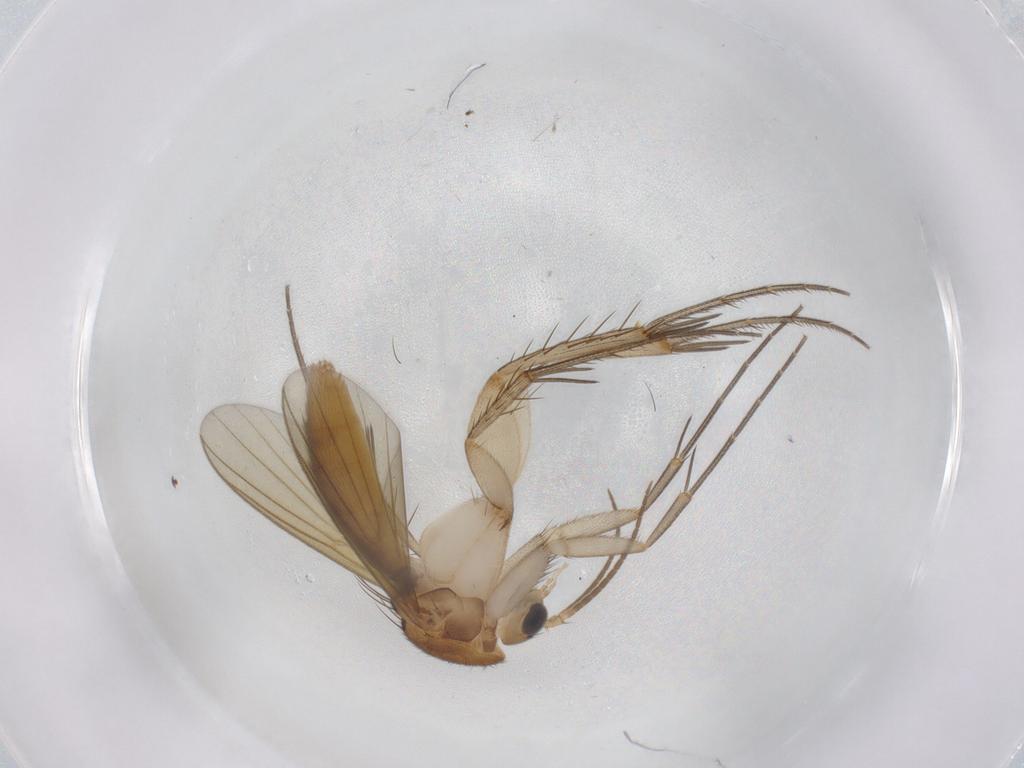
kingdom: Animalia
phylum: Arthropoda
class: Insecta
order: Diptera
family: Mycetophilidae
